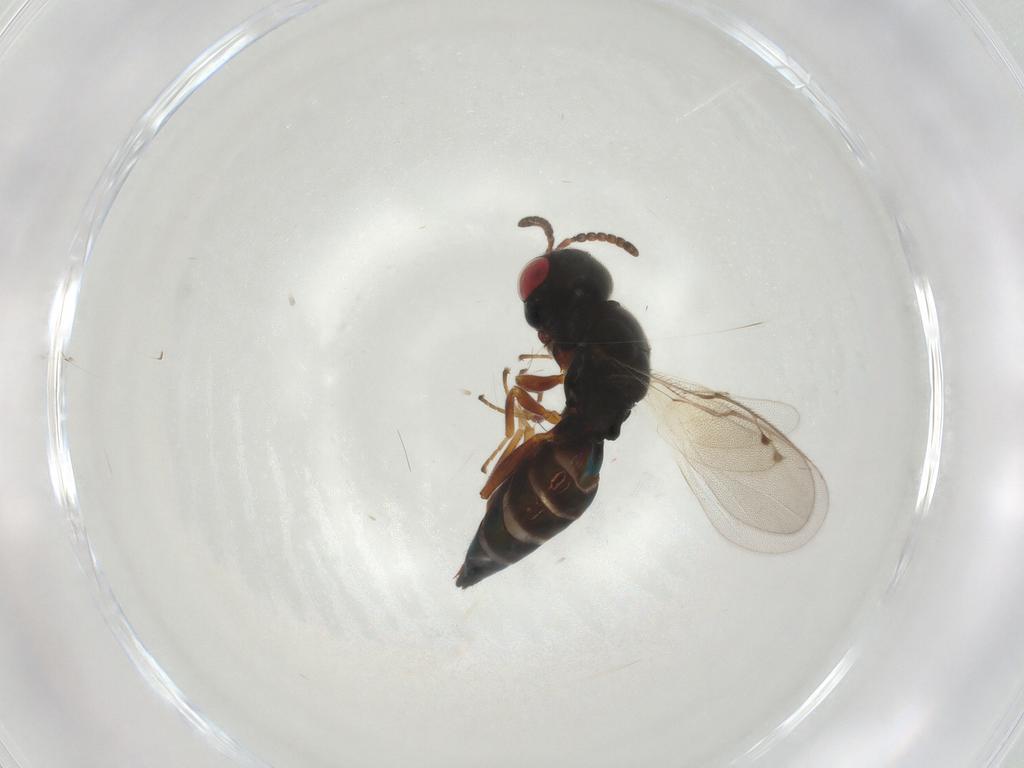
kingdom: Animalia
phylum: Arthropoda
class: Insecta
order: Hymenoptera
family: Pteromalidae
